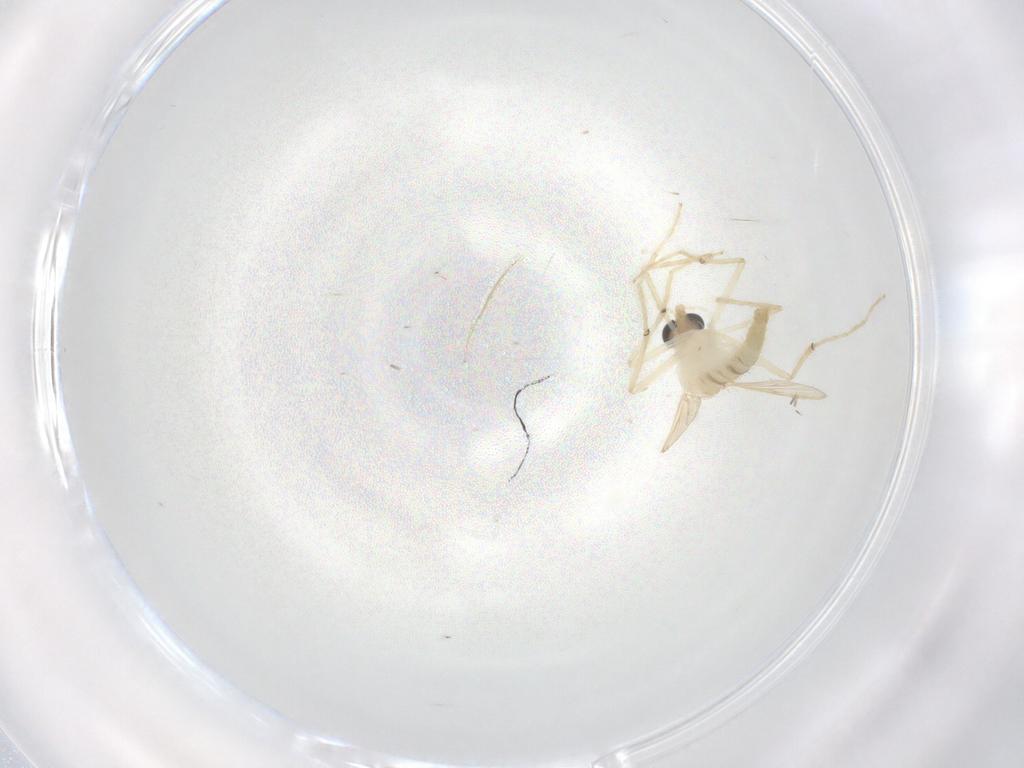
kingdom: Animalia
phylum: Arthropoda
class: Insecta
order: Diptera
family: Chironomidae
